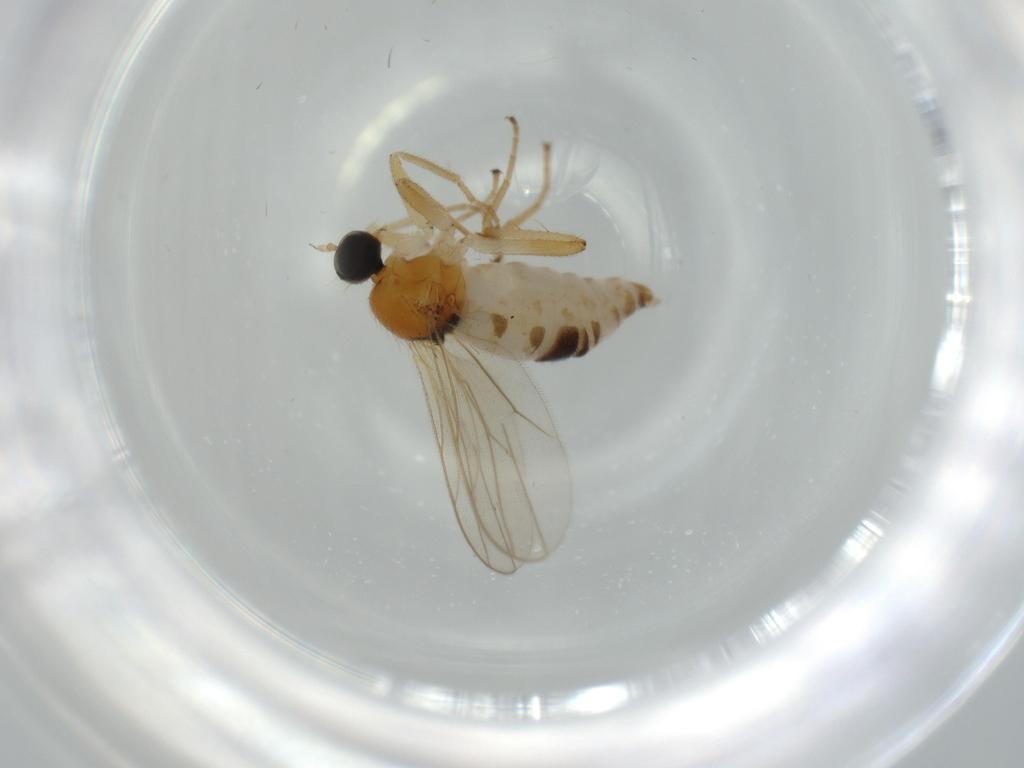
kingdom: Animalia
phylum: Arthropoda
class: Insecta
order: Diptera
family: Hybotidae
